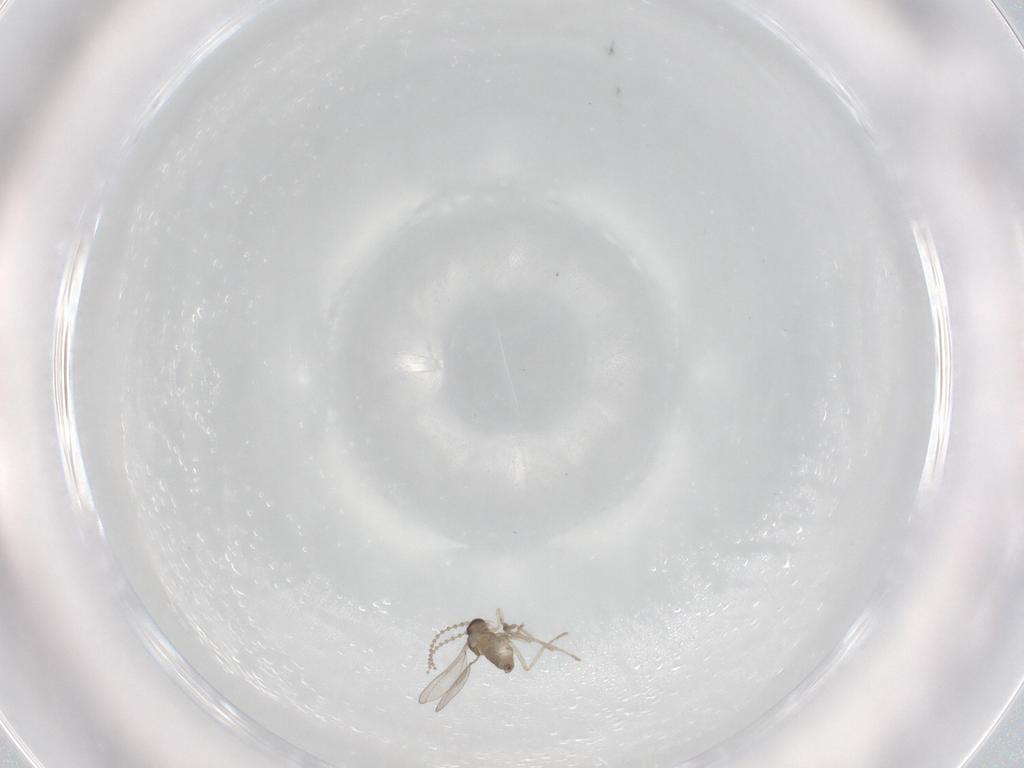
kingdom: Animalia
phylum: Arthropoda
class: Insecta
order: Diptera
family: Cecidomyiidae
